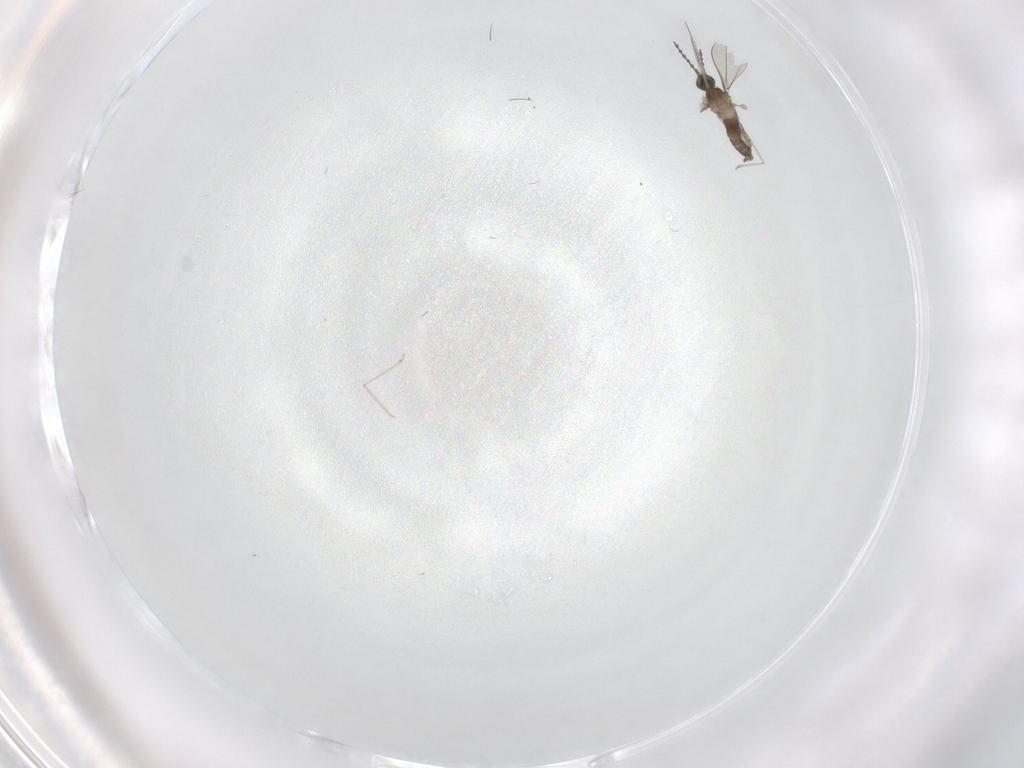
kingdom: Animalia
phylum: Arthropoda
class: Insecta
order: Diptera
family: Cecidomyiidae
